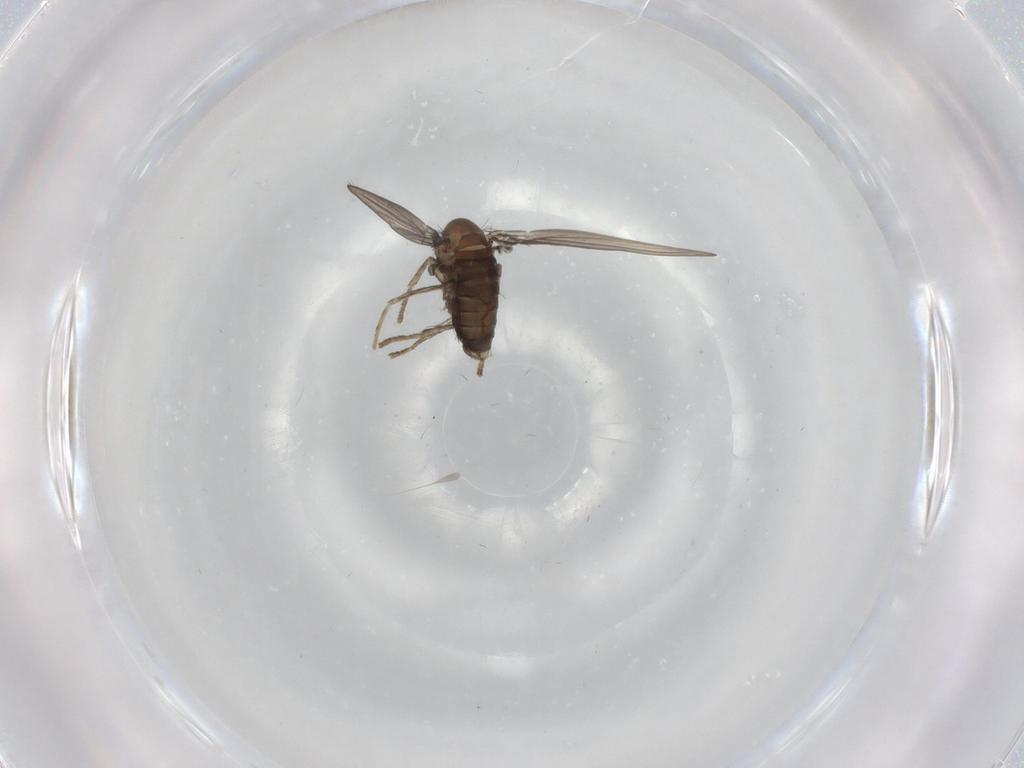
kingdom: Animalia
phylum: Arthropoda
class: Insecta
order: Diptera
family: Psychodidae
